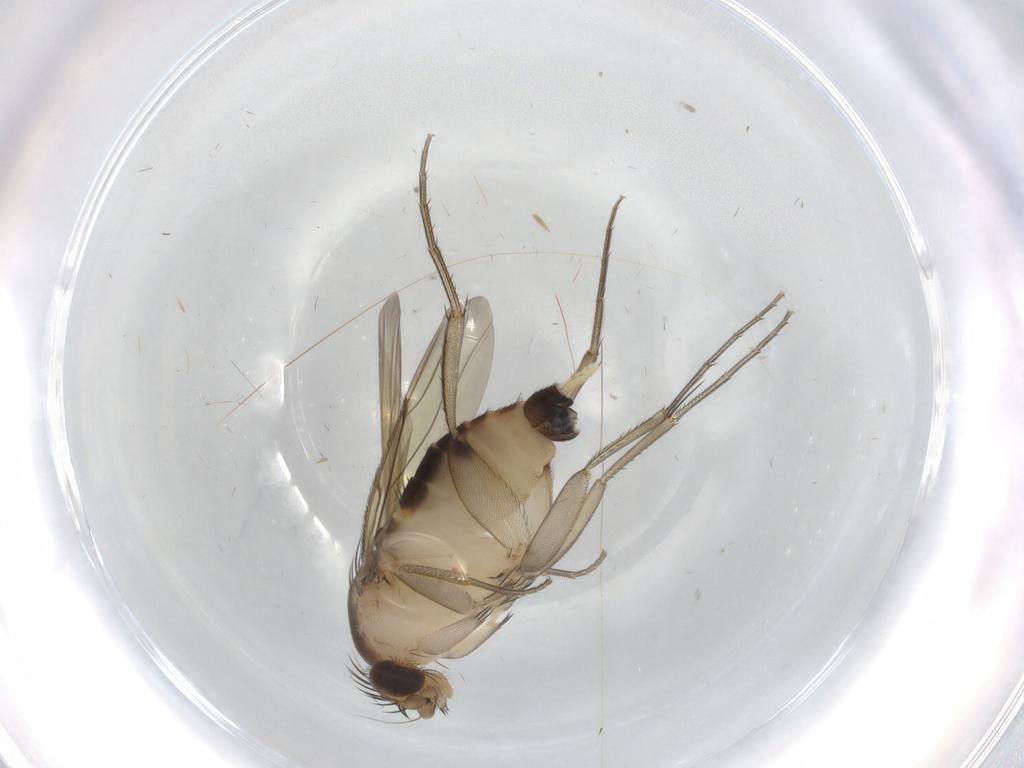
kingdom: Animalia
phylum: Arthropoda
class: Insecta
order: Diptera
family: Phoridae
